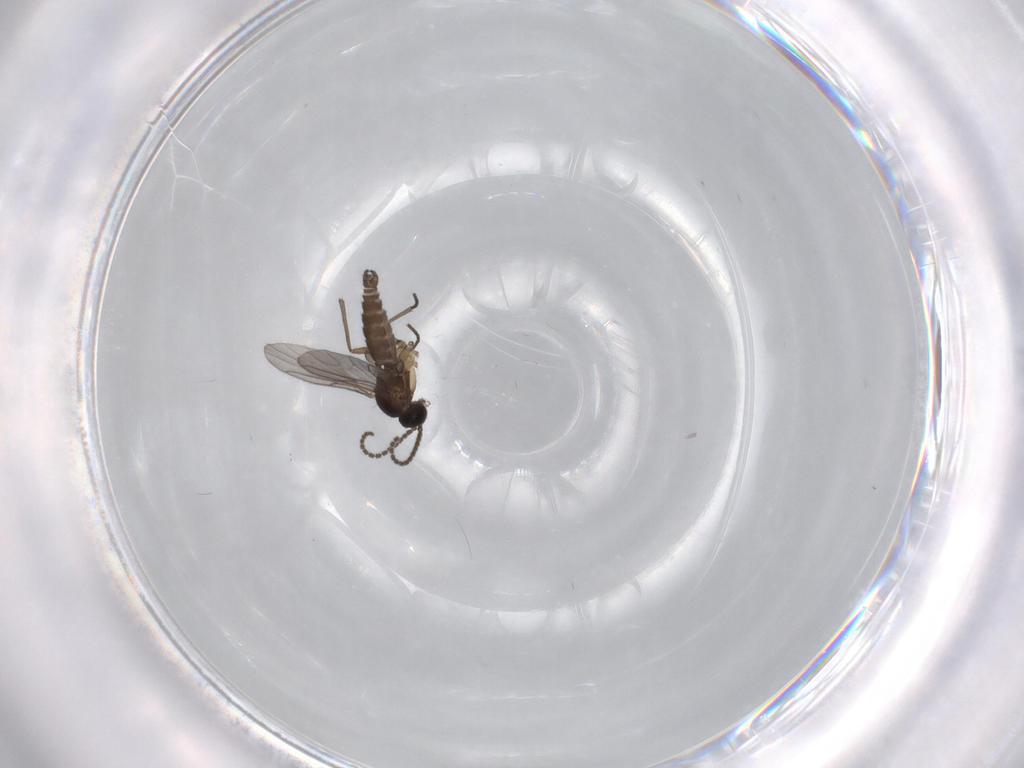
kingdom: Animalia
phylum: Arthropoda
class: Insecta
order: Diptera
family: Sciaridae
